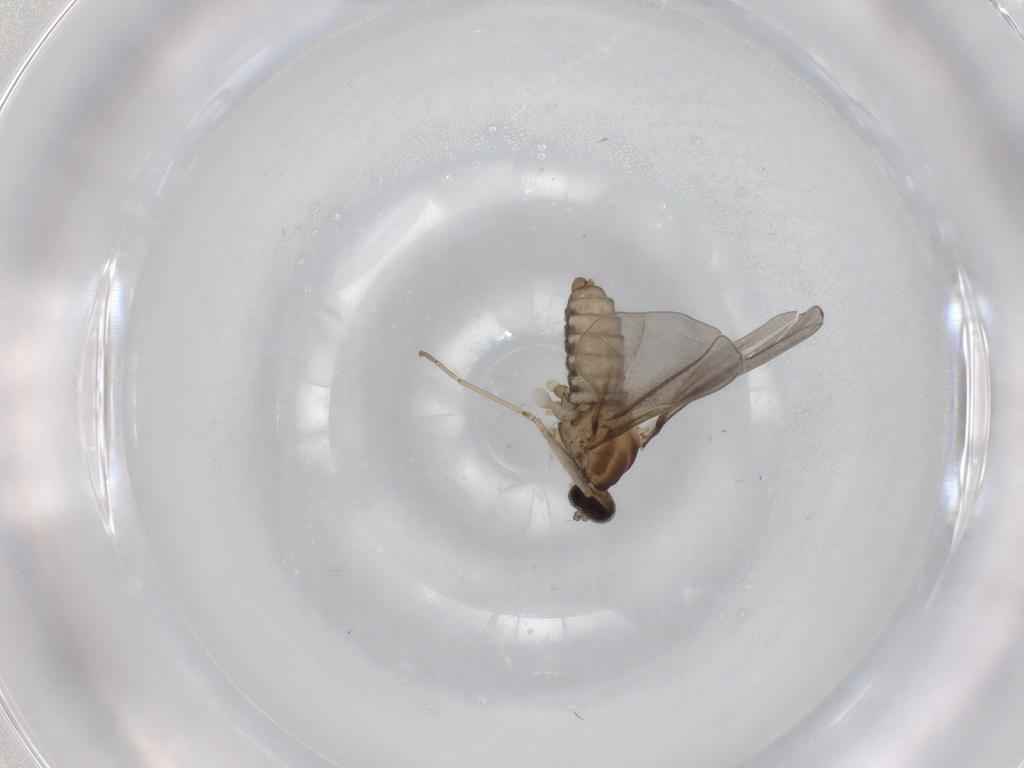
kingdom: Animalia
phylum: Arthropoda
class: Insecta
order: Diptera
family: Cecidomyiidae
